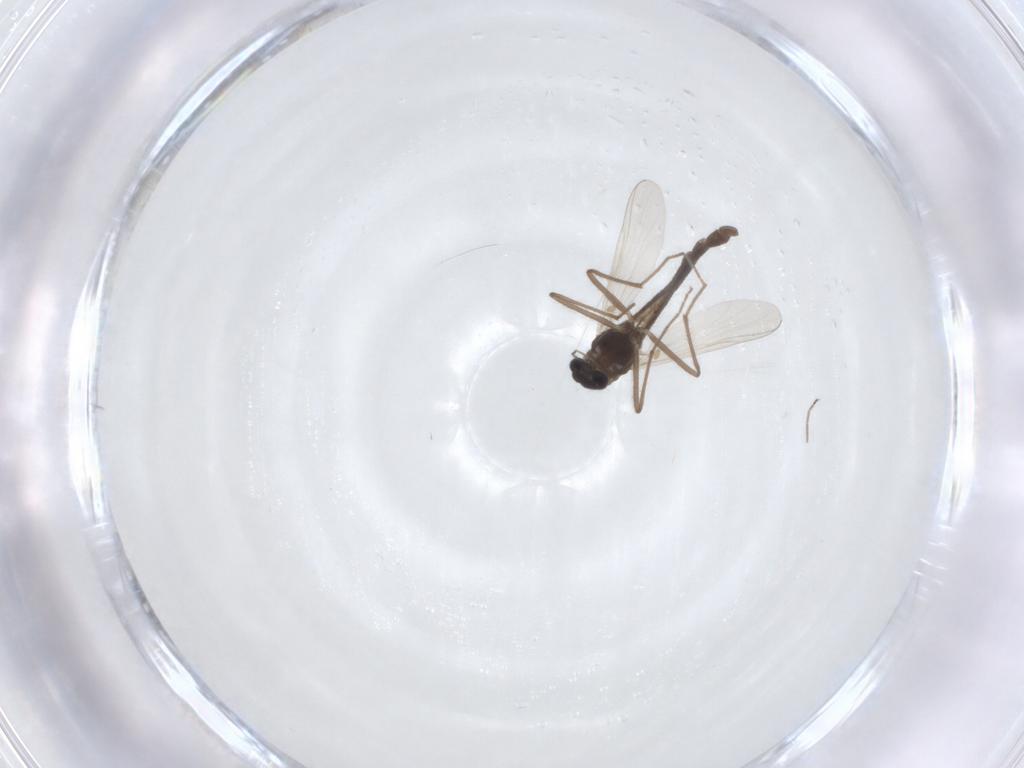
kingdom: Animalia
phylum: Arthropoda
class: Insecta
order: Diptera
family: Chironomidae
